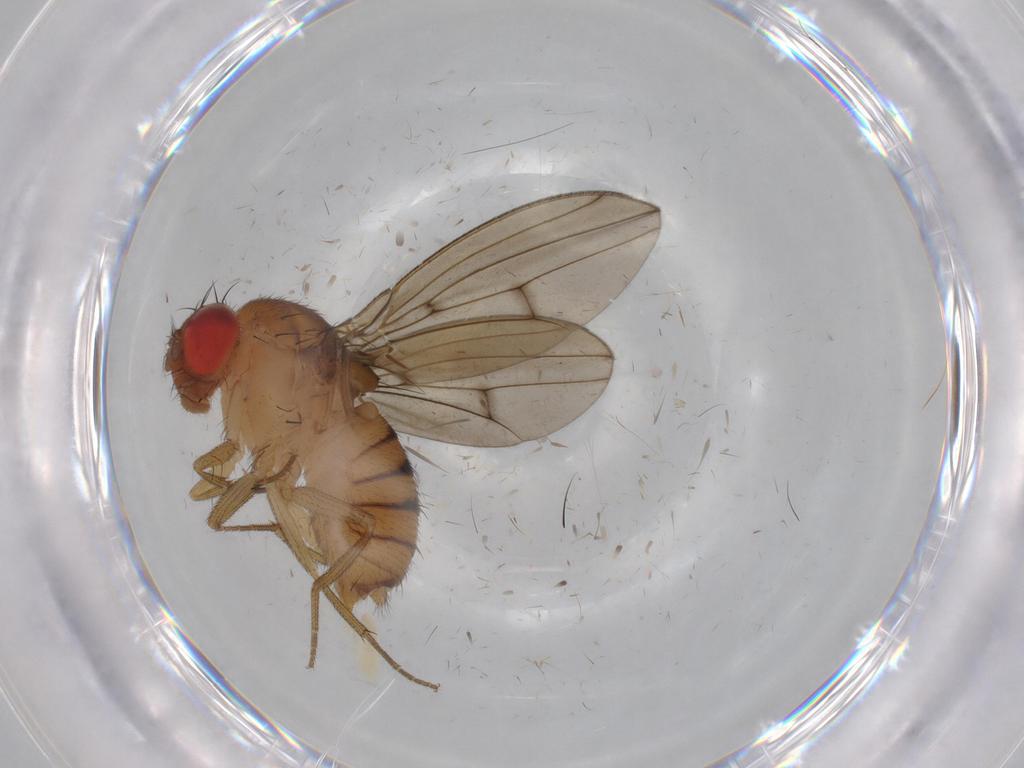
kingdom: Animalia
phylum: Arthropoda
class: Insecta
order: Diptera
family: Drosophilidae
